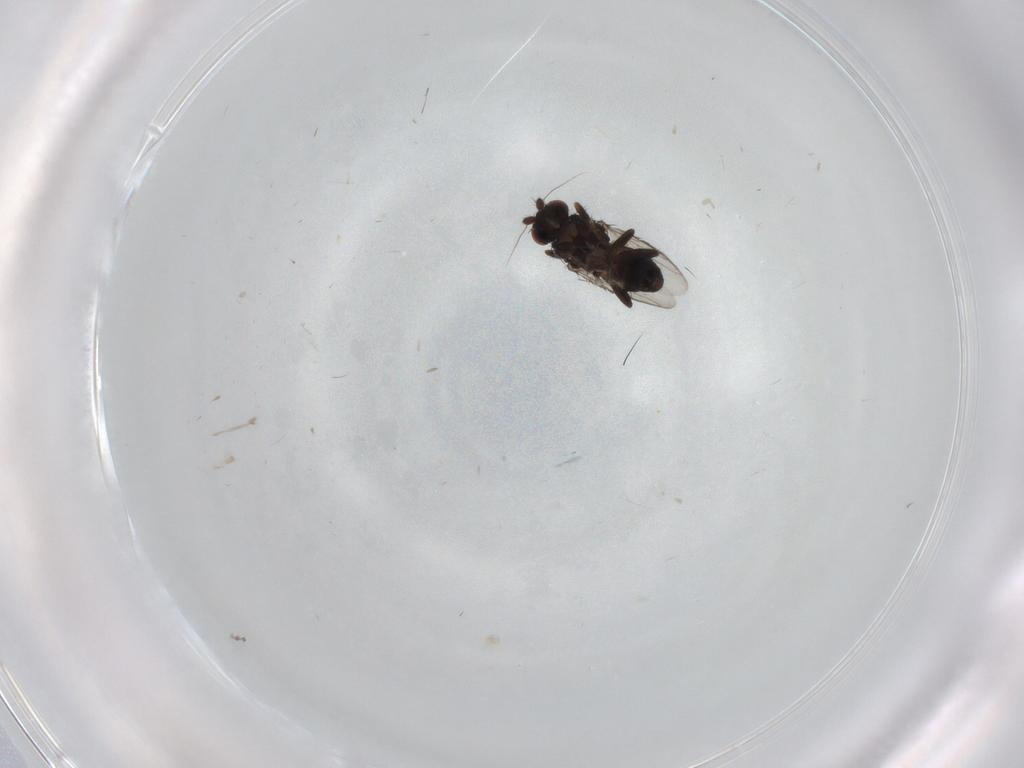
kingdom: Animalia
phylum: Arthropoda
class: Insecta
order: Diptera
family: Sphaeroceridae
